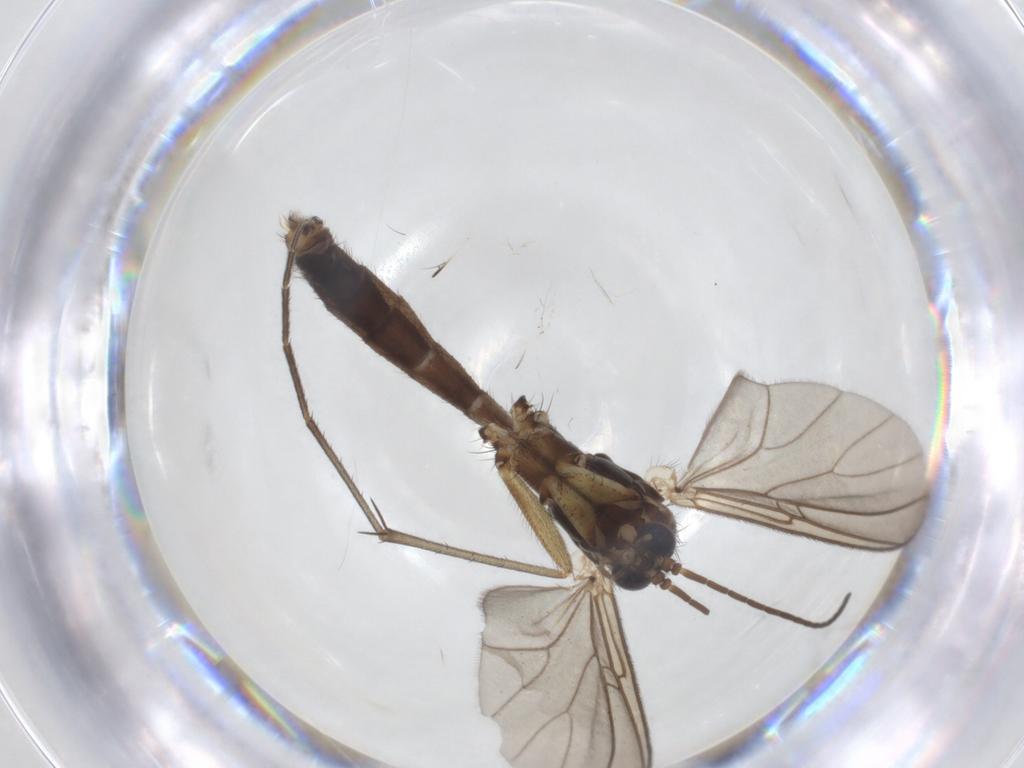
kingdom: Animalia
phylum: Arthropoda
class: Insecta
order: Diptera
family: Cecidomyiidae
